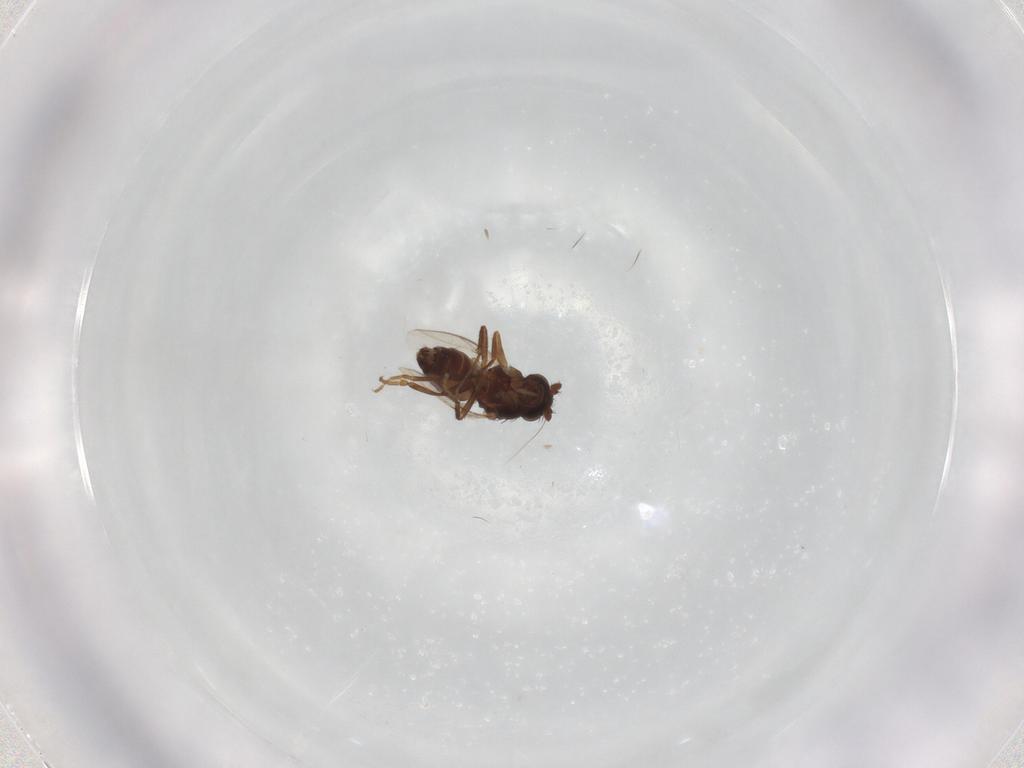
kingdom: Animalia
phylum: Arthropoda
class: Insecta
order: Diptera
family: Sphaeroceridae
